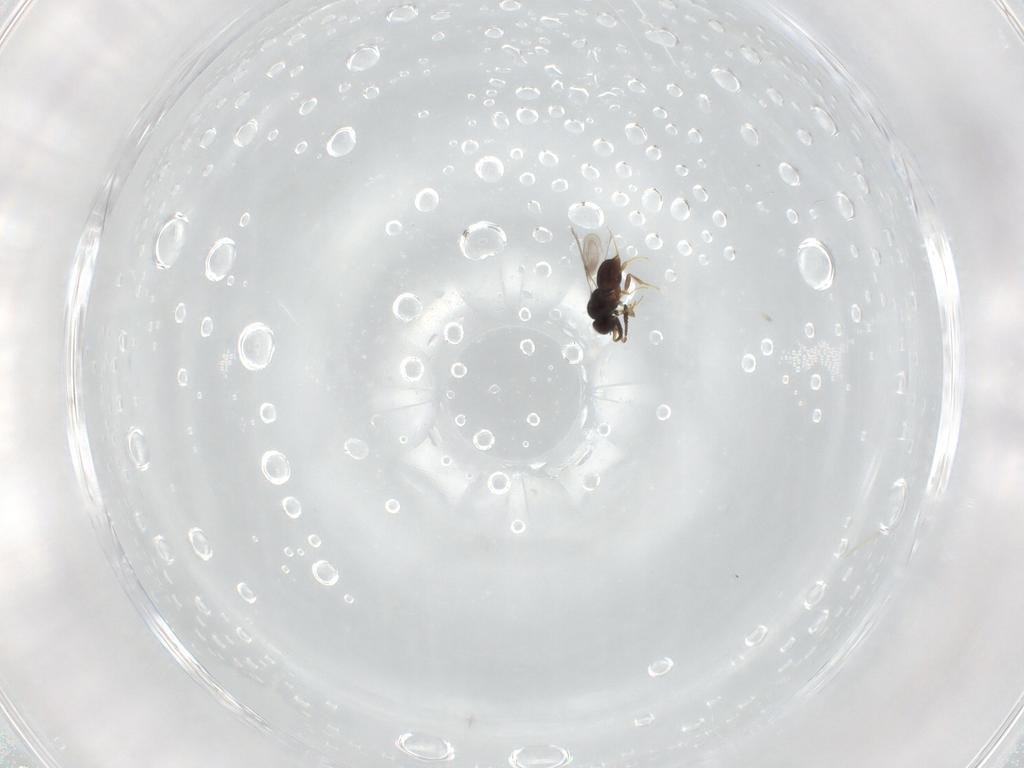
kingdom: Animalia
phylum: Arthropoda
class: Insecta
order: Hymenoptera
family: Ceraphronidae
